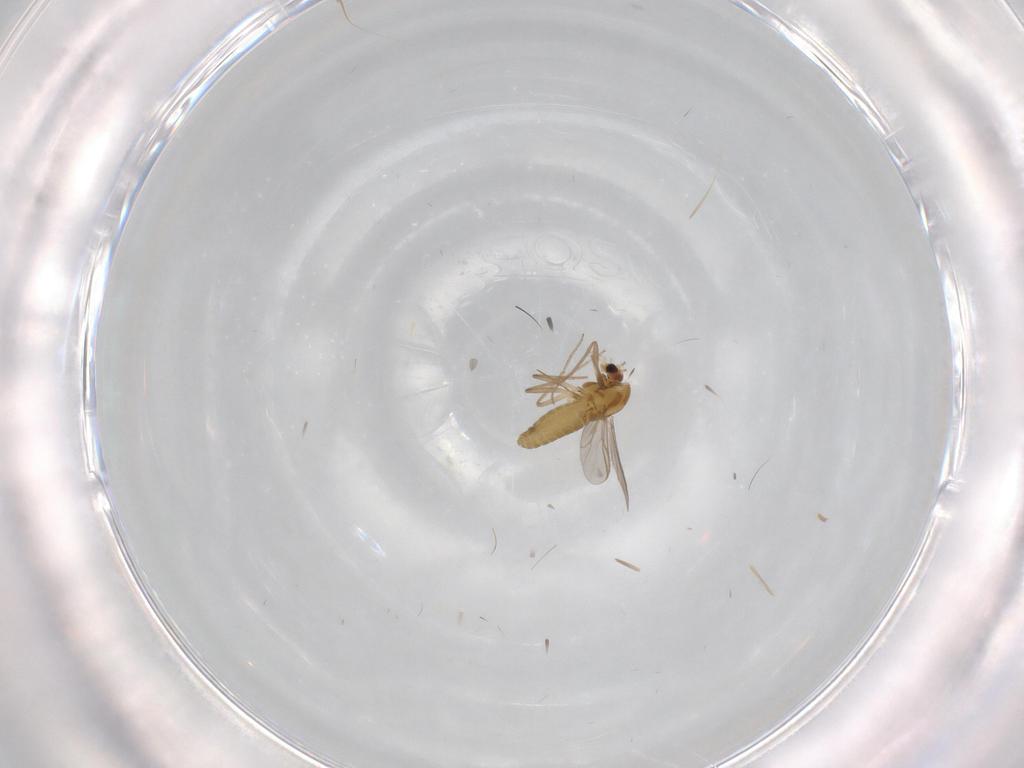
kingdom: Animalia
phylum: Arthropoda
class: Insecta
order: Diptera
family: Chironomidae
